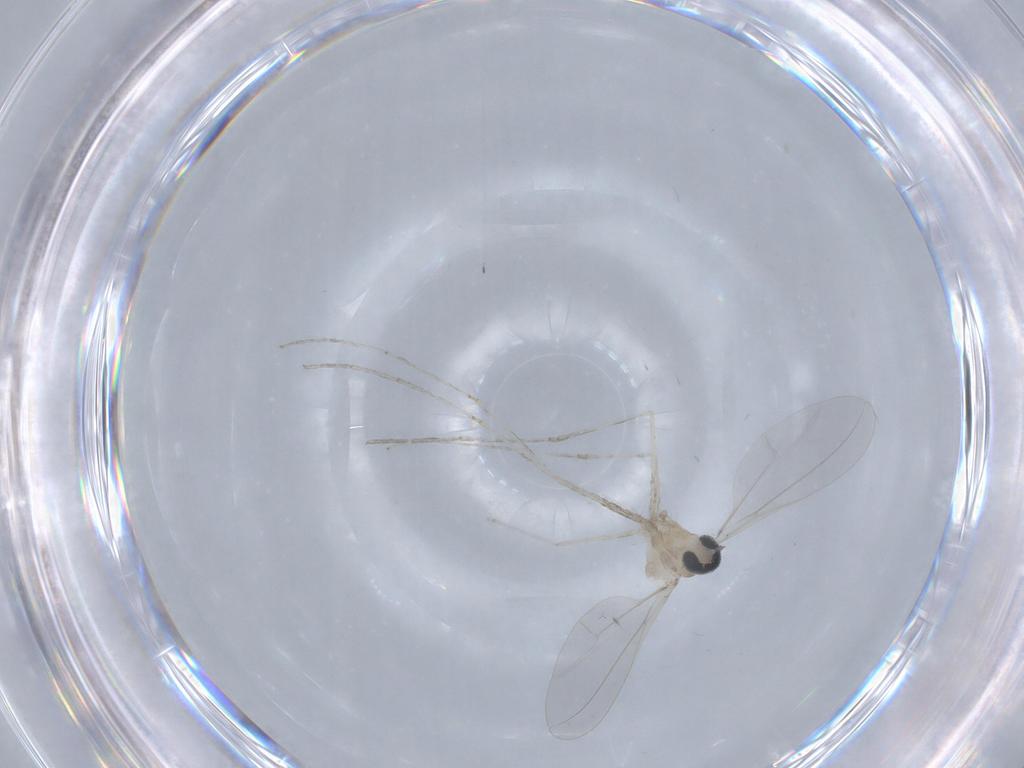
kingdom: Animalia
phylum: Arthropoda
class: Insecta
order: Diptera
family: Cecidomyiidae
